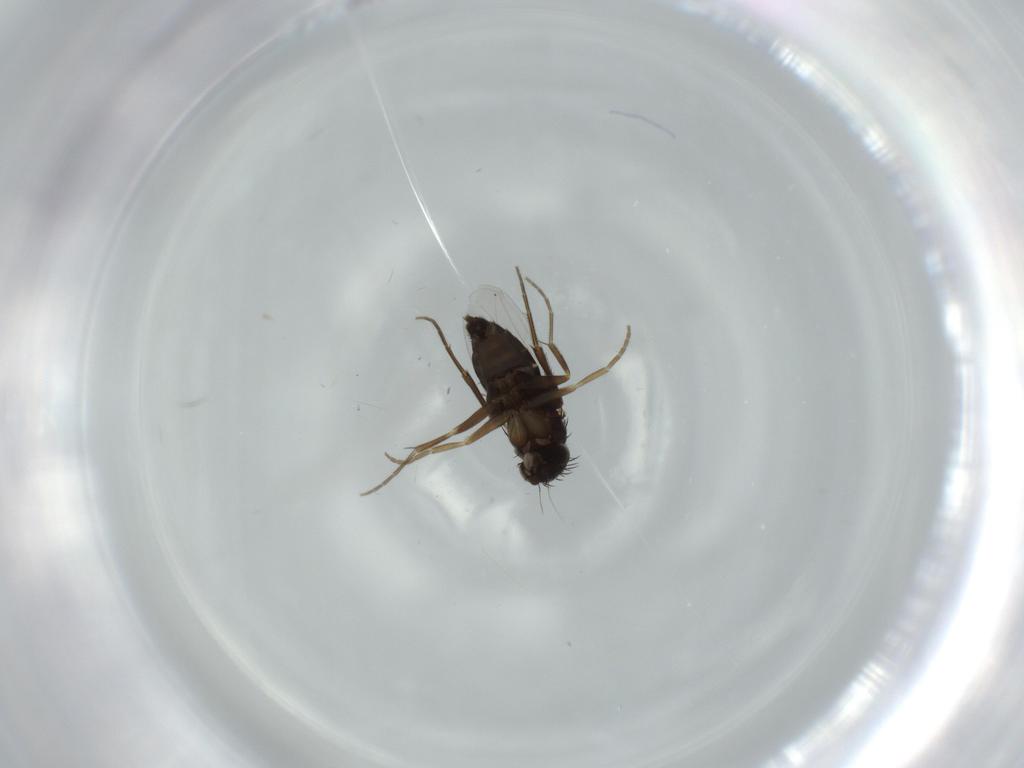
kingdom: Animalia
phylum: Arthropoda
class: Insecta
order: Diptera
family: Phoridae
